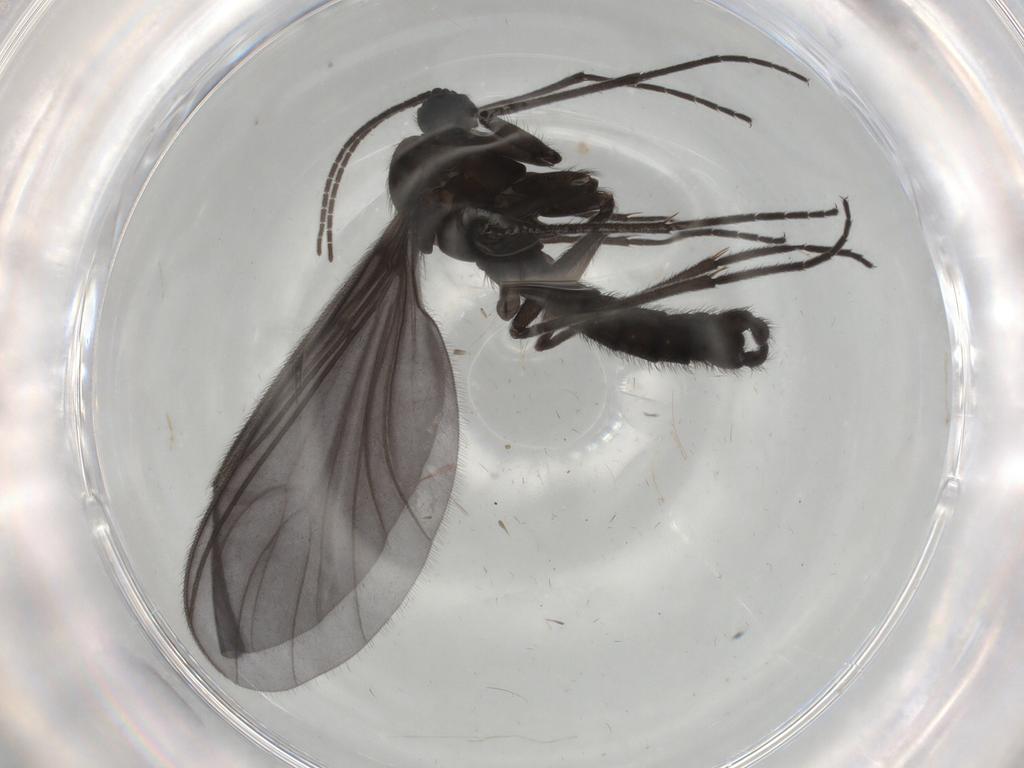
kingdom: Animalia
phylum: Arthropoda
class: Insecta
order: Diptera
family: Sciaridae
